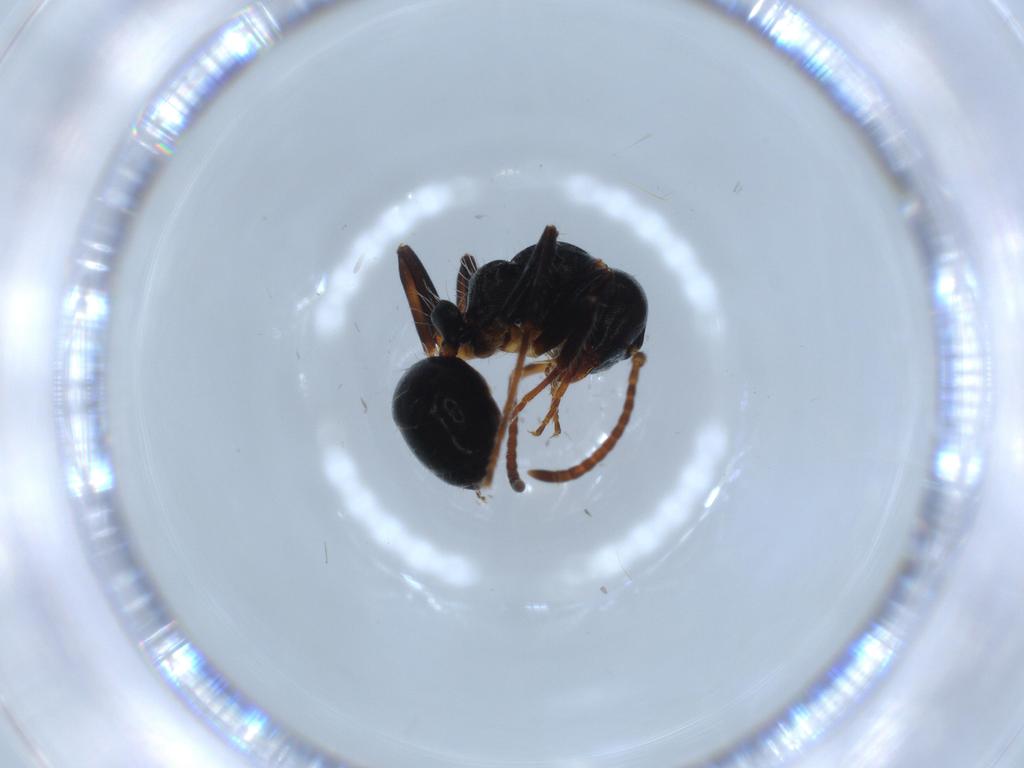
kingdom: Animalia
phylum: Arthropoda
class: Insecta
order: Hymenoptera
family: Formicidae
